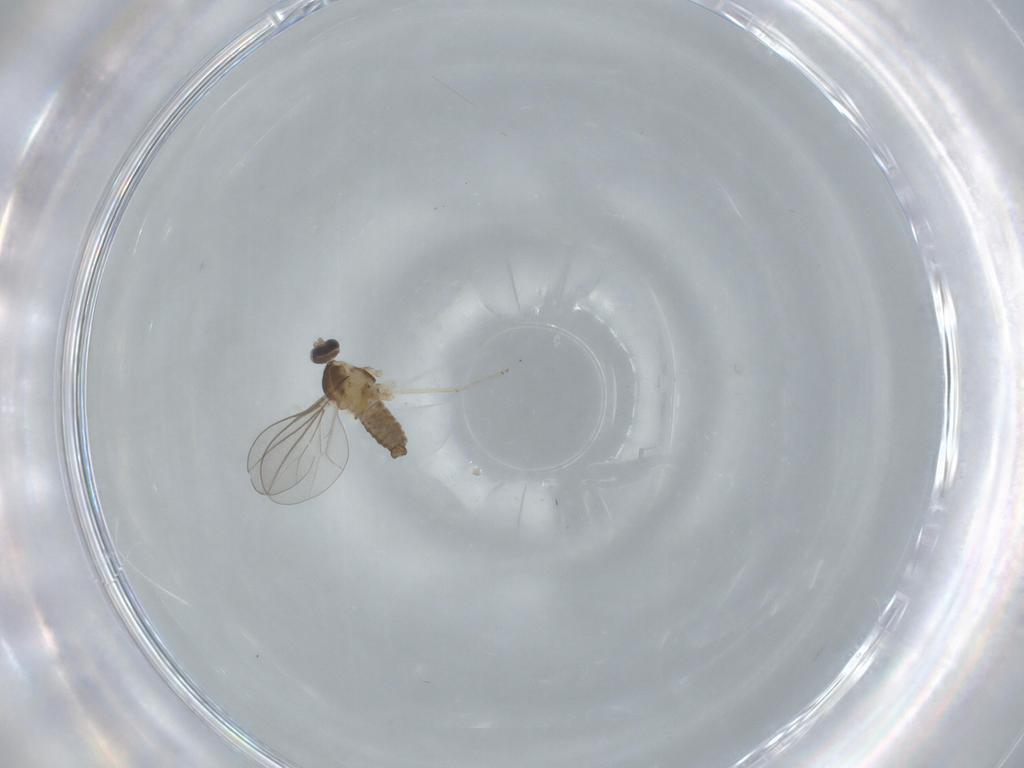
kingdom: Animalia
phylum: Arthropoda
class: Insecta
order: Diptera
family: Cecidomyiidae
